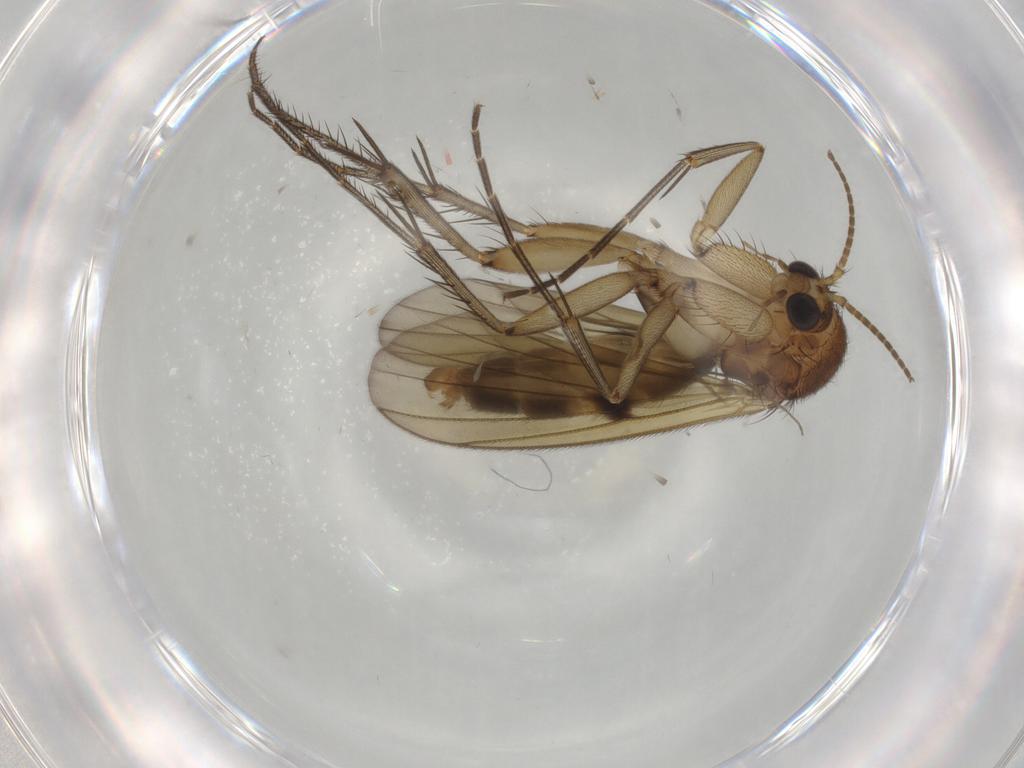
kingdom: Animalia
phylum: Arthropoda
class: Insecta
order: Diptera
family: Mycetophilidae
